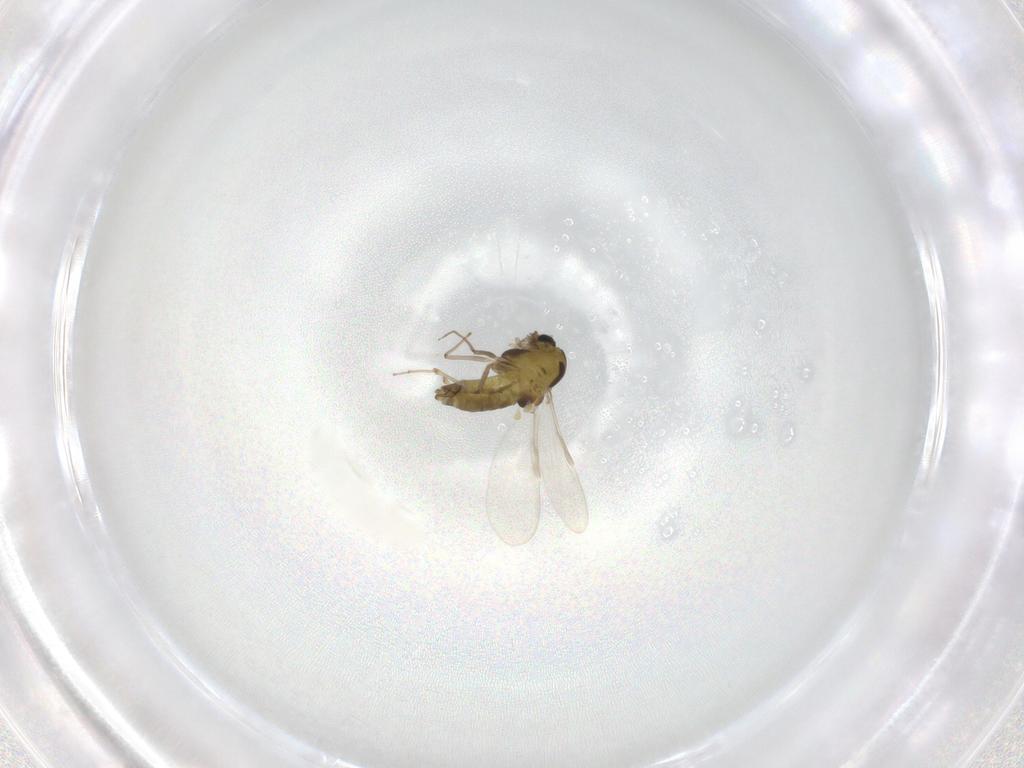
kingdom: Animalia
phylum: Arthropoda
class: Insecta
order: Diptera
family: Chironomidae
